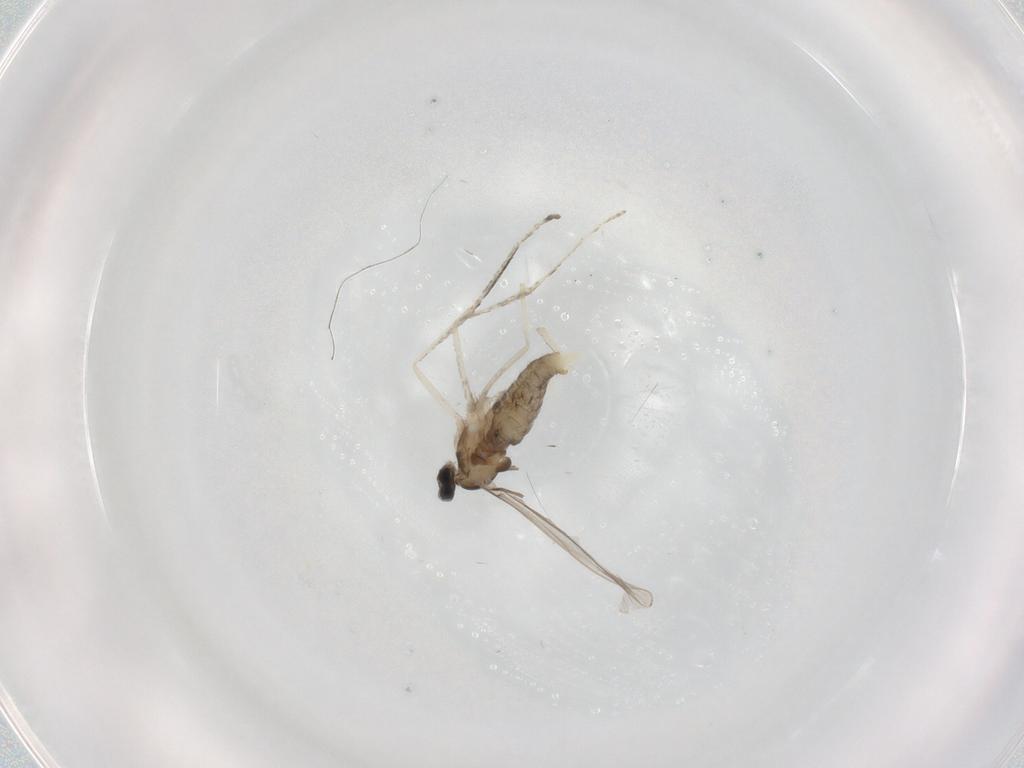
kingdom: Animalia
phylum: Arthropoda
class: Insecta
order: Diptera
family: Cecidomyiidae
